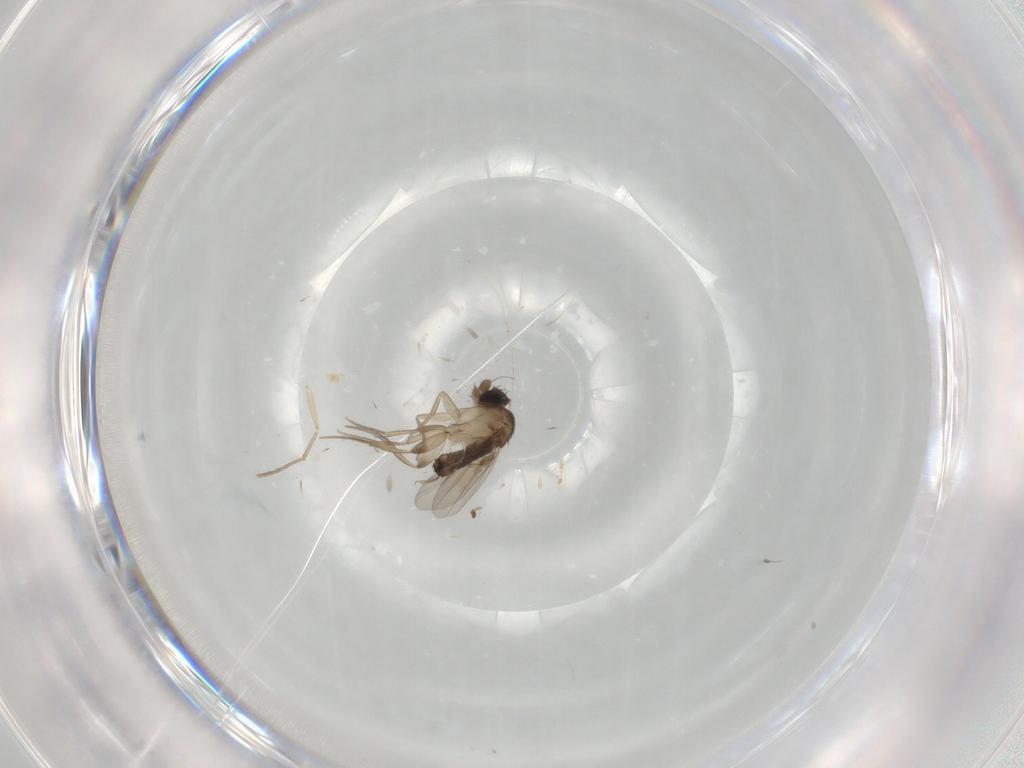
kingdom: Animalia
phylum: Arthropoda
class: Insecta
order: Diptera
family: Phoridae
